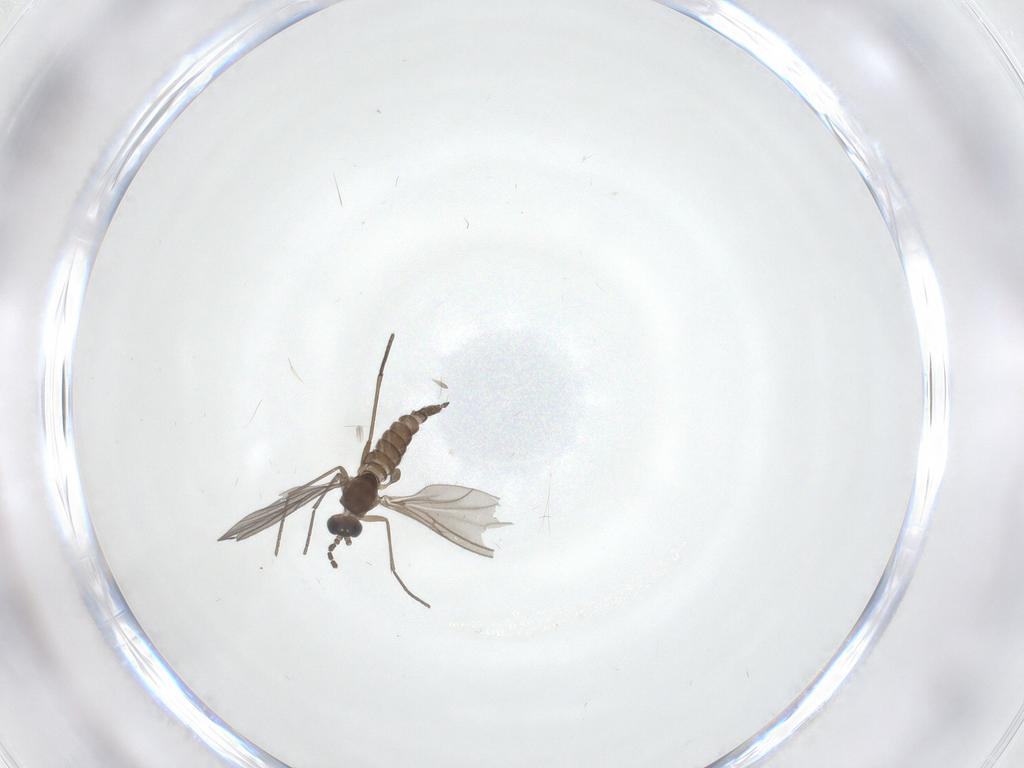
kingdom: Animalia
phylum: Arthropoda
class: Insecta
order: Diptera
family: Sciaridae
